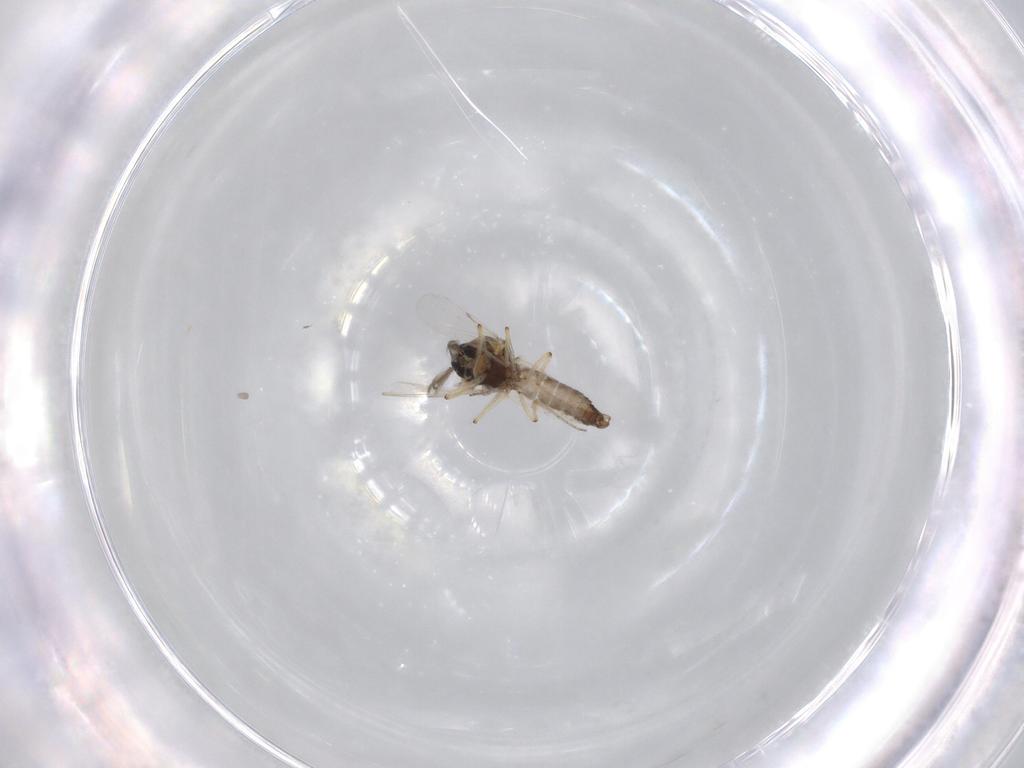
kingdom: Animalia
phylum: Arthropoda
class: Insecta
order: Diptera
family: Ceratopogonidae
